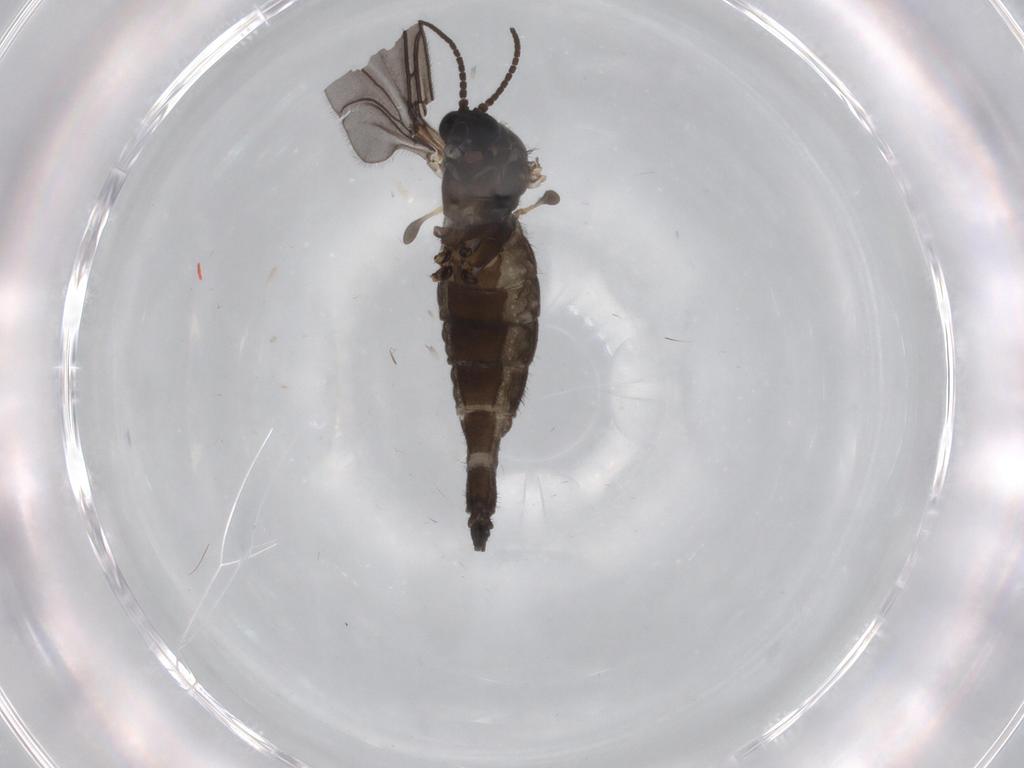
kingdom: Animalia
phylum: Arthropoda
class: Insecta
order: Diptera
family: Sciaridae
